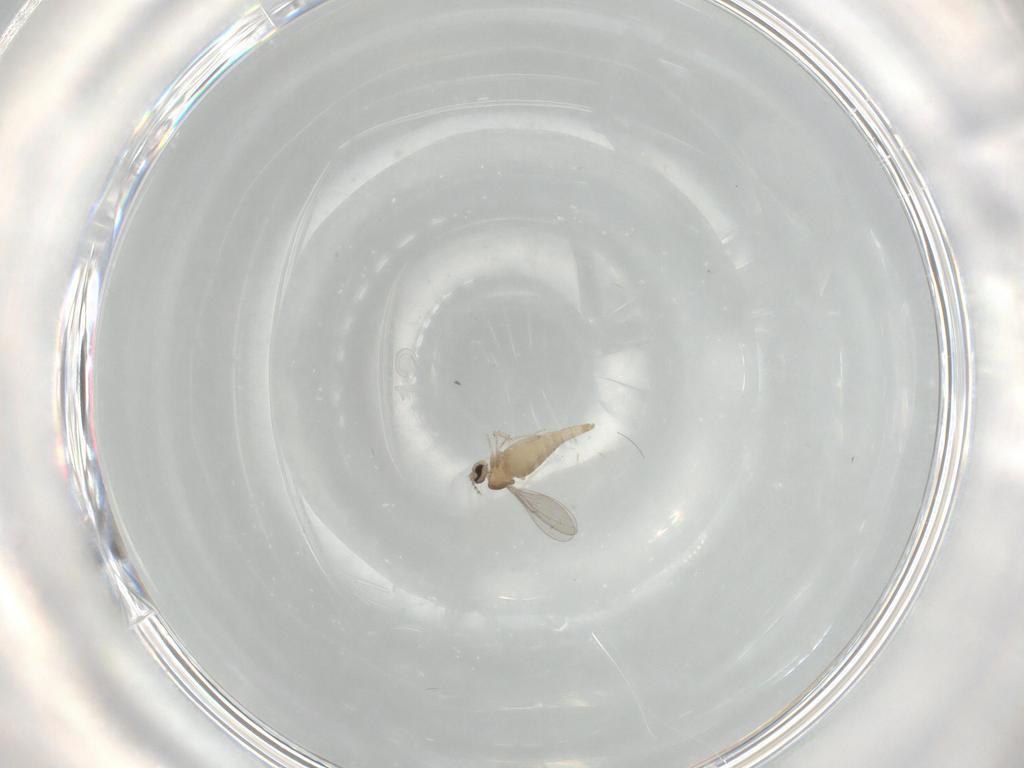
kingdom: Animalia
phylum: Arthropoda
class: Insecta
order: Diptera
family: Cecidomyiidae
